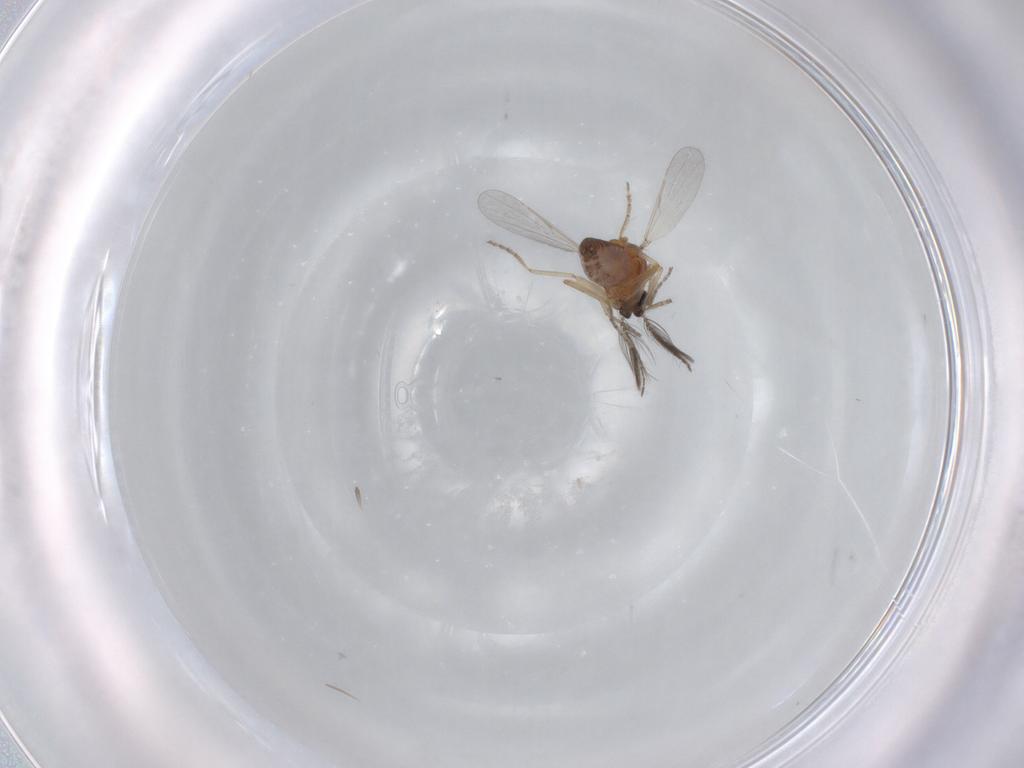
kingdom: Animalia
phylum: Arthropoda
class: Insecta
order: Diptera
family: Ceratopogonidae
